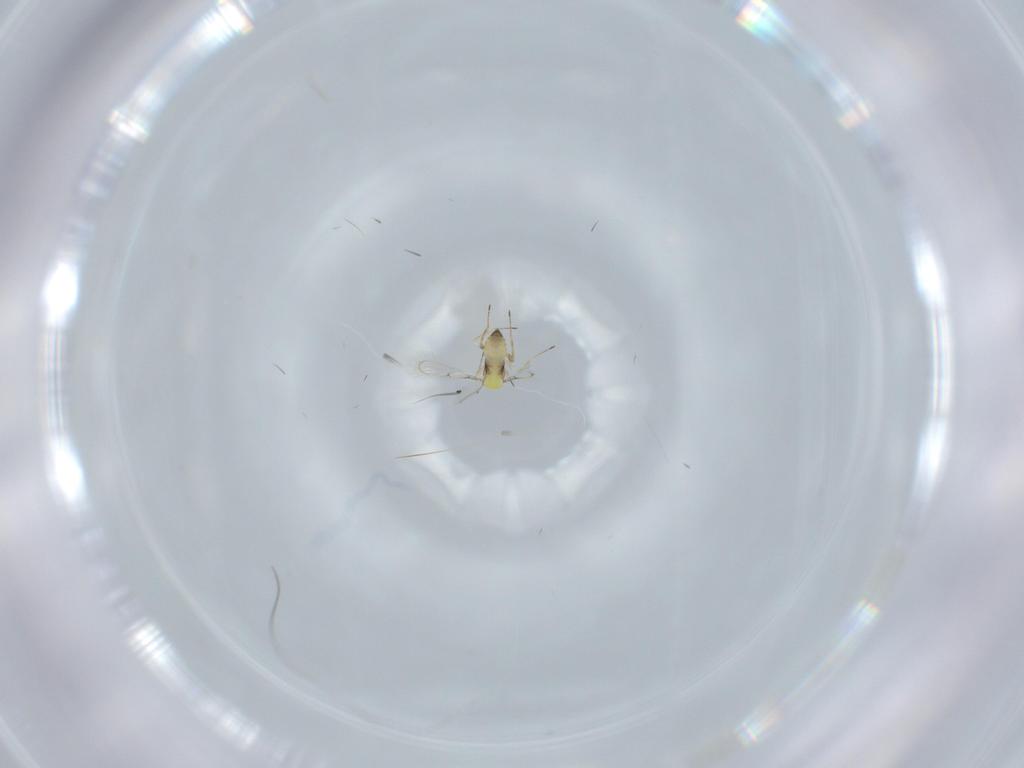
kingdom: Animalia
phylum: Arthropoda
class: Insecta
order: Hymenoptera
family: Trichogrammatidae
